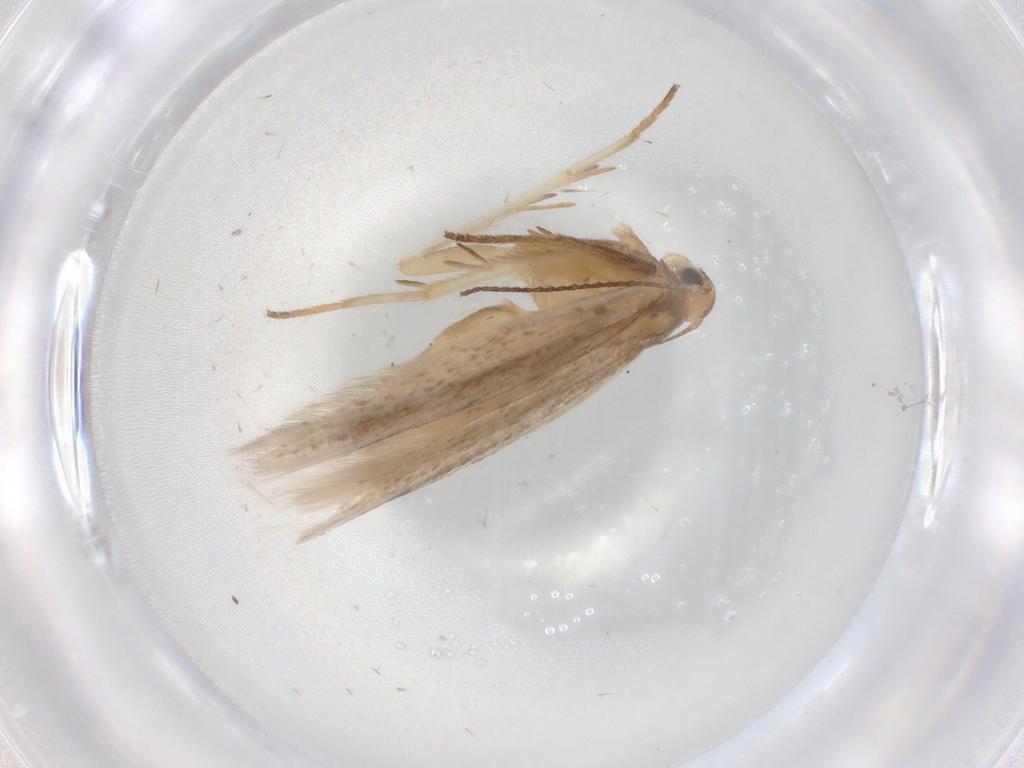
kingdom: Animalia
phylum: Arthropoda
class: Insecta
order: Lepidoptera
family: Gelechiidae
